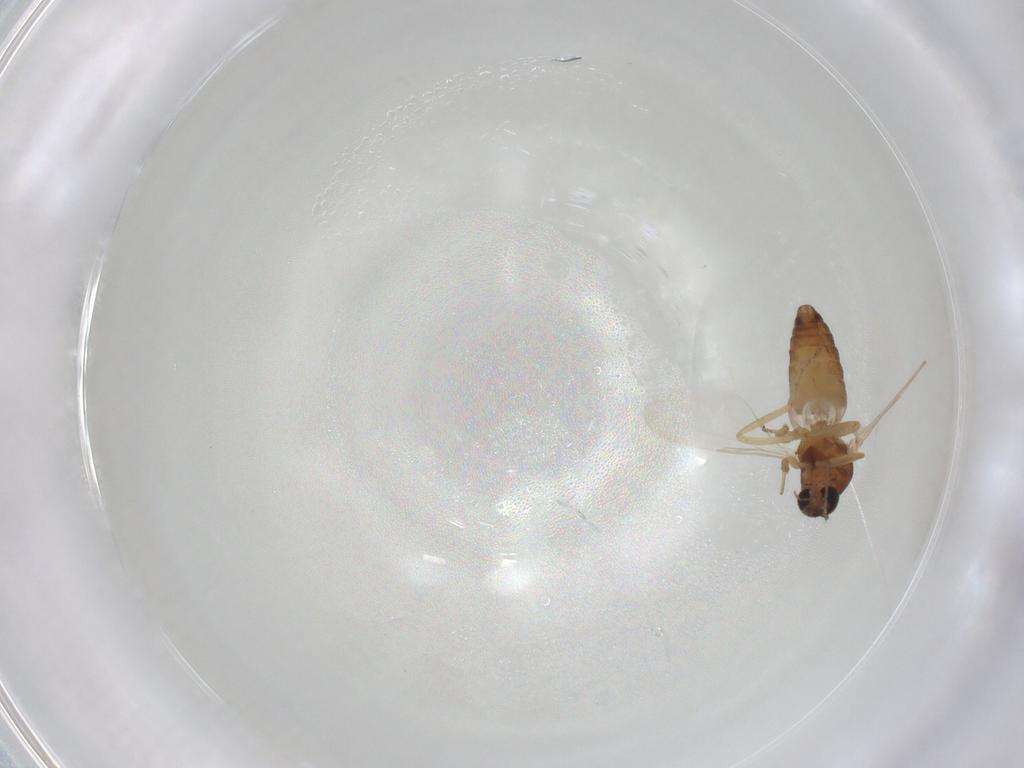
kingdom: Animalia
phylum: Arthropoda
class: Insecta
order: Diptera
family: Ceratopogonidae
